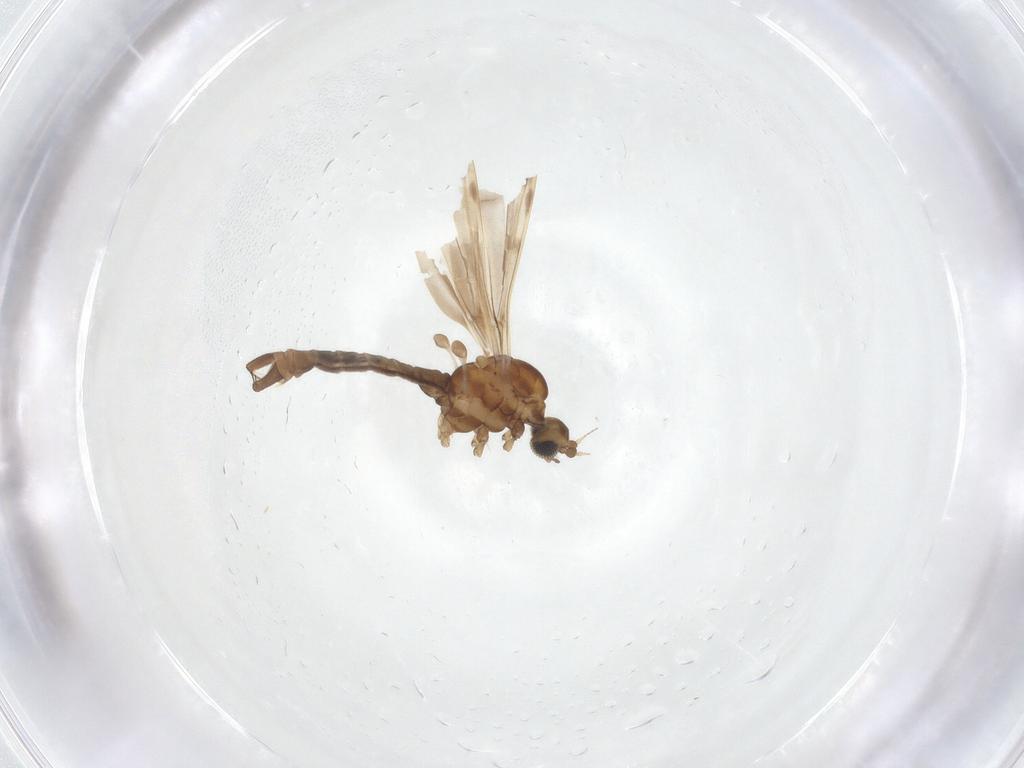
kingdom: Animalia
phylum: Arthropoda
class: Insecta
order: Diptera
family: Limoniidae
